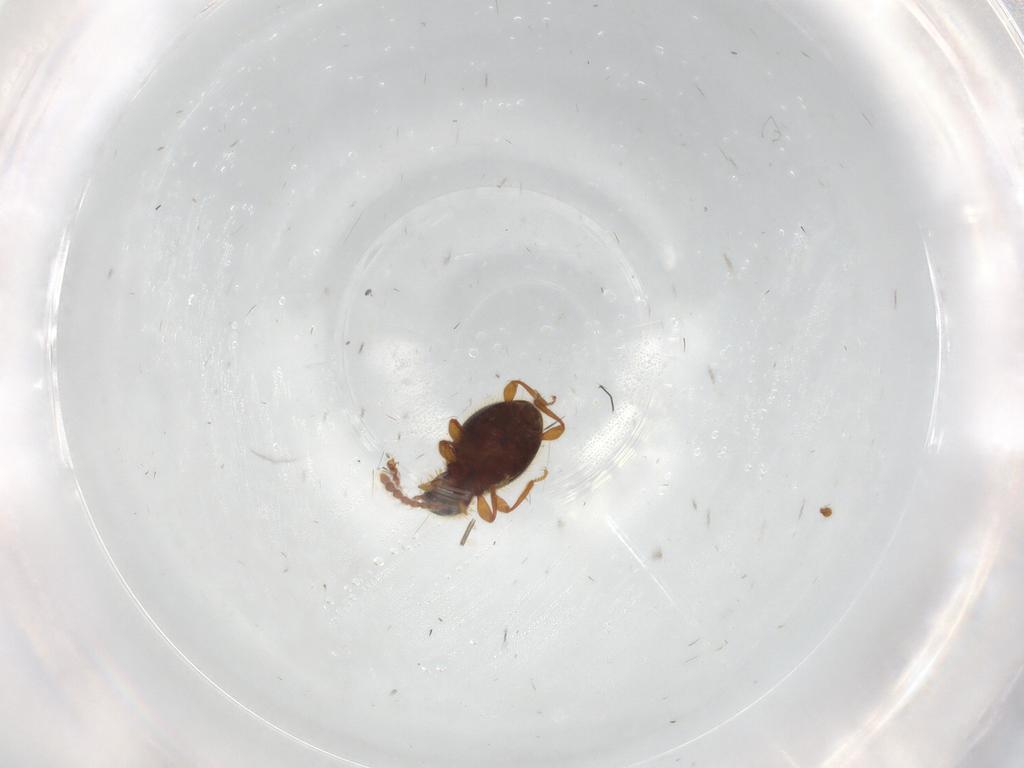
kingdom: Animalia
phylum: Arthropoda
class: Insecta
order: Coleoptera
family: Staphylinidae
